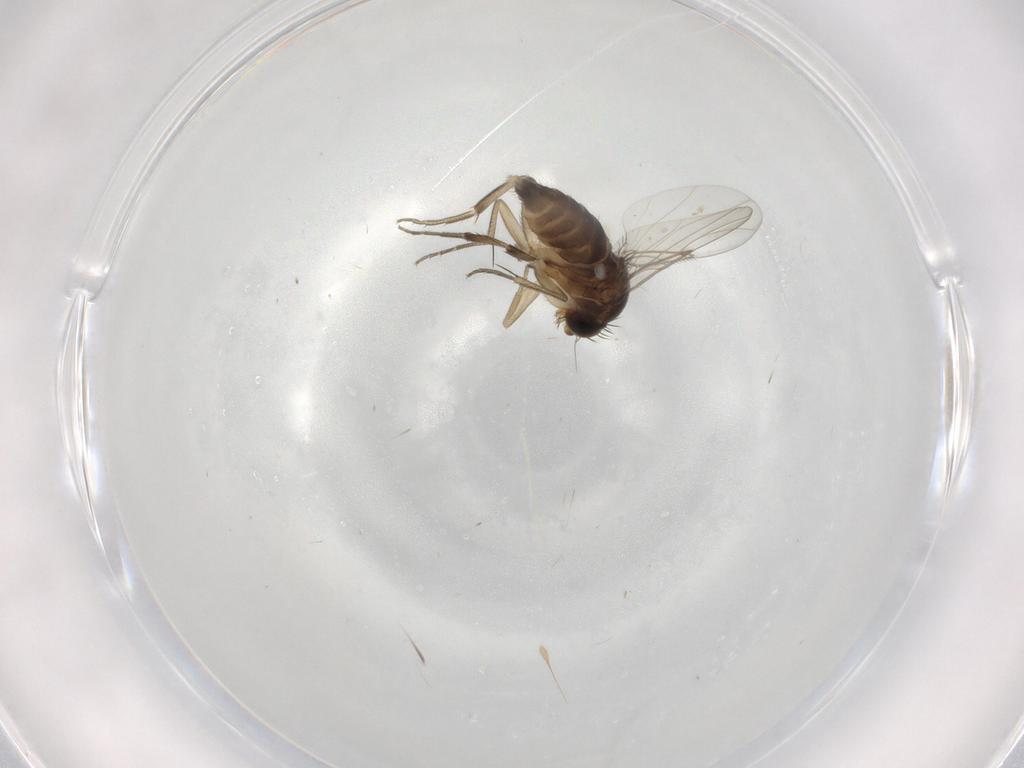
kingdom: Animalia
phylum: Arthropoda
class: Insecta
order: Diptera
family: Phoridae
